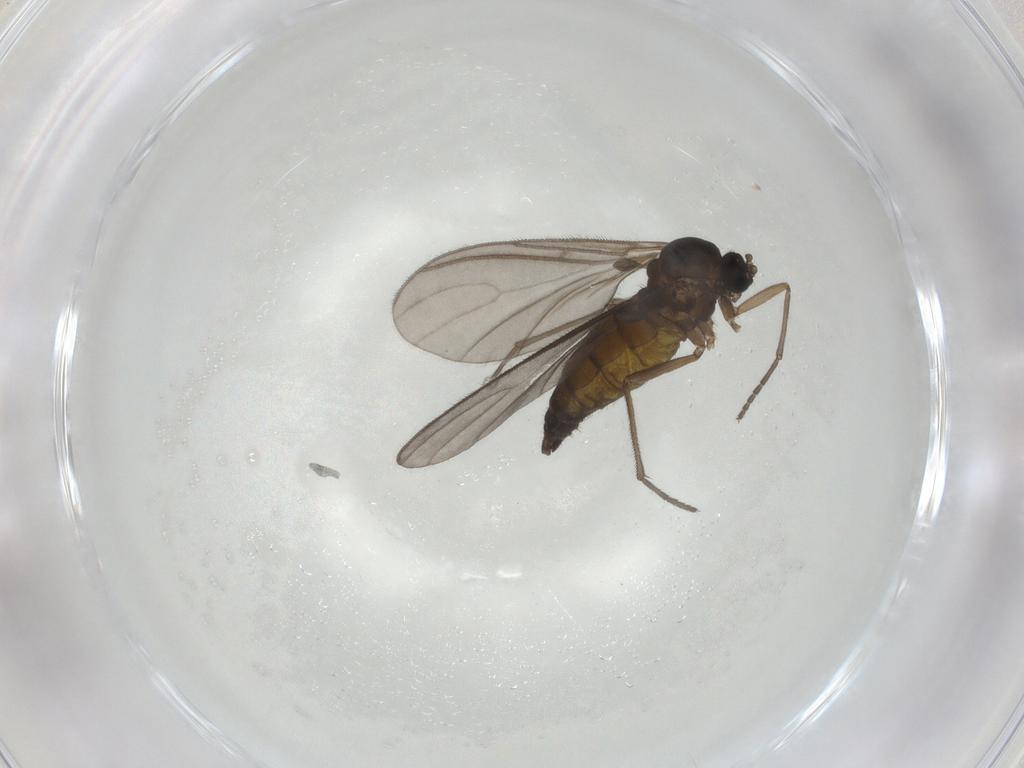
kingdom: Animalia
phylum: Arthropoda
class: Insecta
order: Diptera
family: Sciaridae
